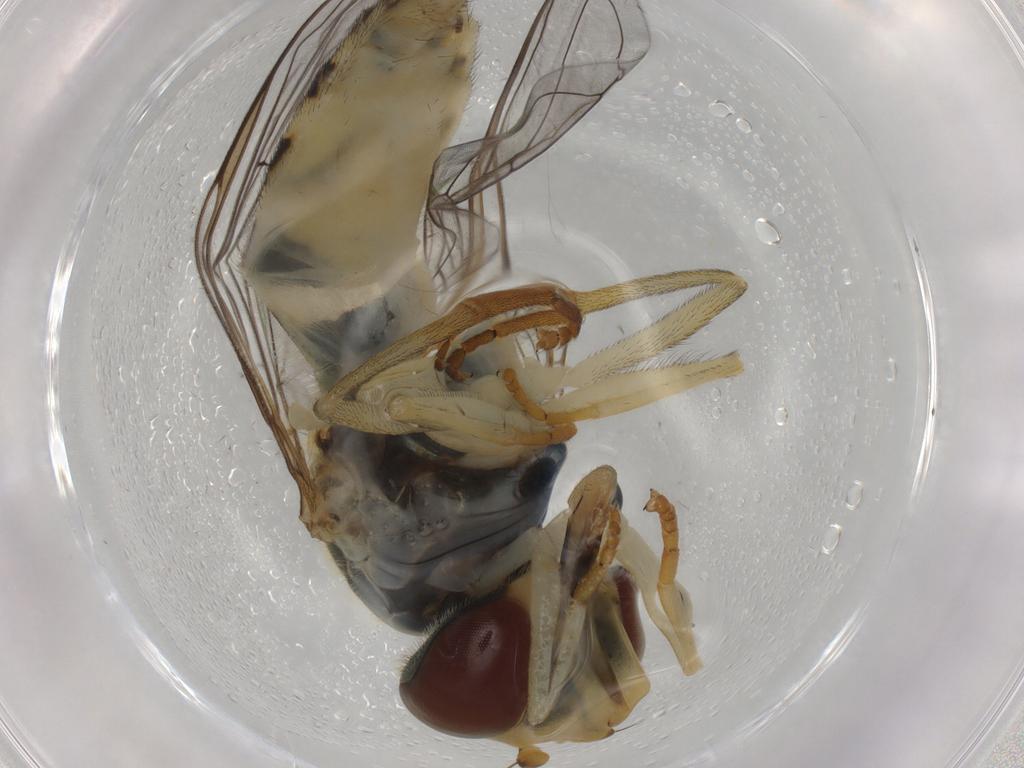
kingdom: Animalia
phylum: Arthropoda
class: Insecta
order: Diptera
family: Syrphidae
